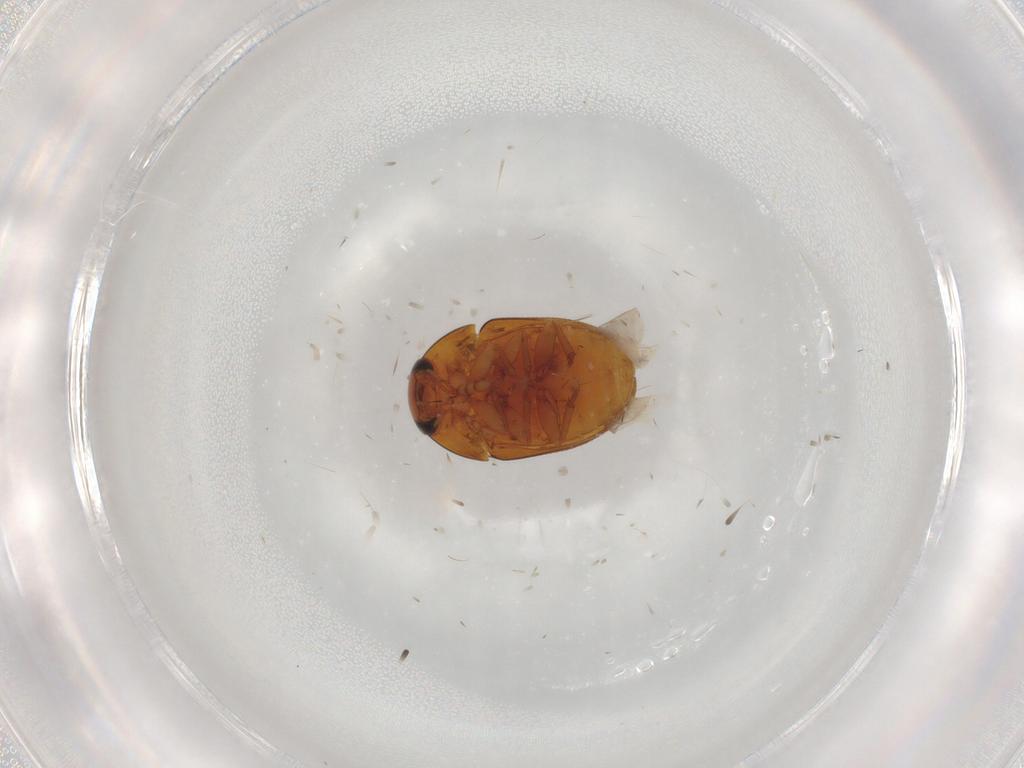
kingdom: Animalia
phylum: Arthropoda
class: Insecta
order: Coleoptera
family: Phalacridae
